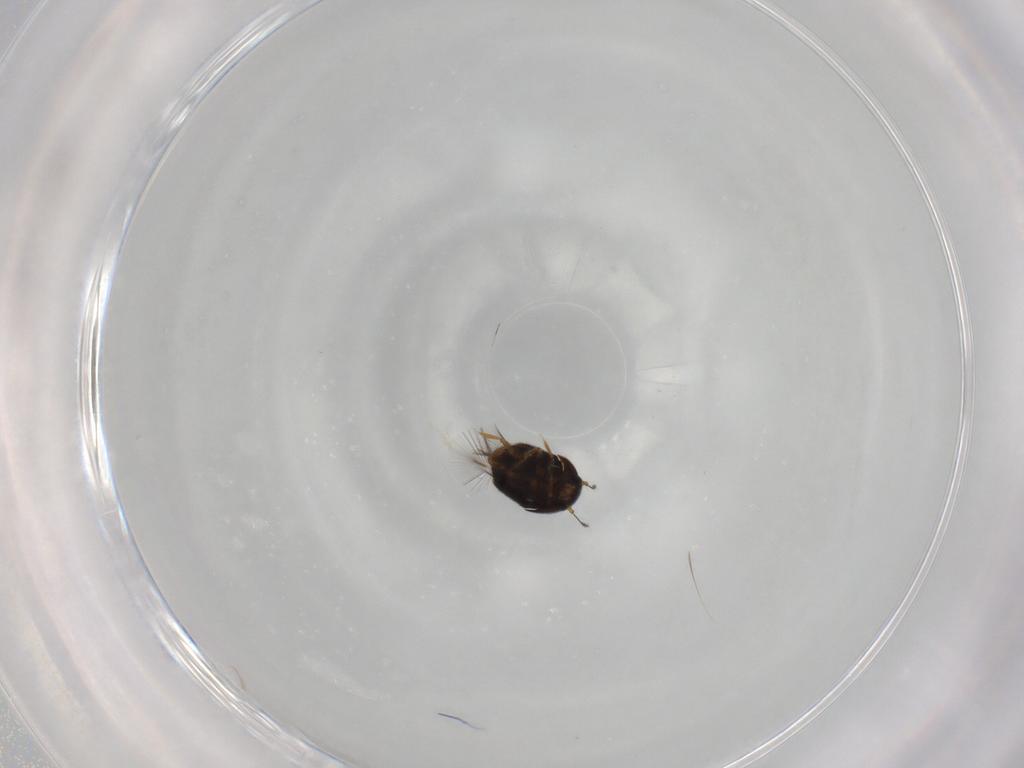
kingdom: Animalia
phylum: Arthropoda
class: Insecta
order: Coleoptera
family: Ptiliidae
